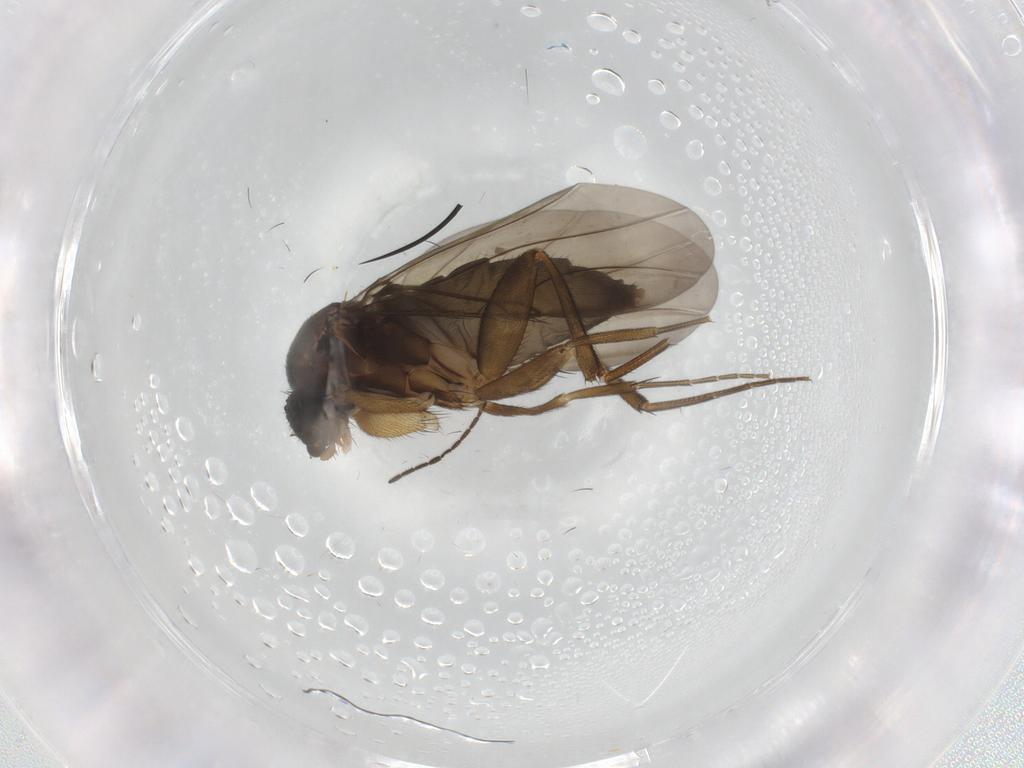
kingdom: Animalia
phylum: Arthropoda
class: Insecta
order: Diptera
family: Phoridae
